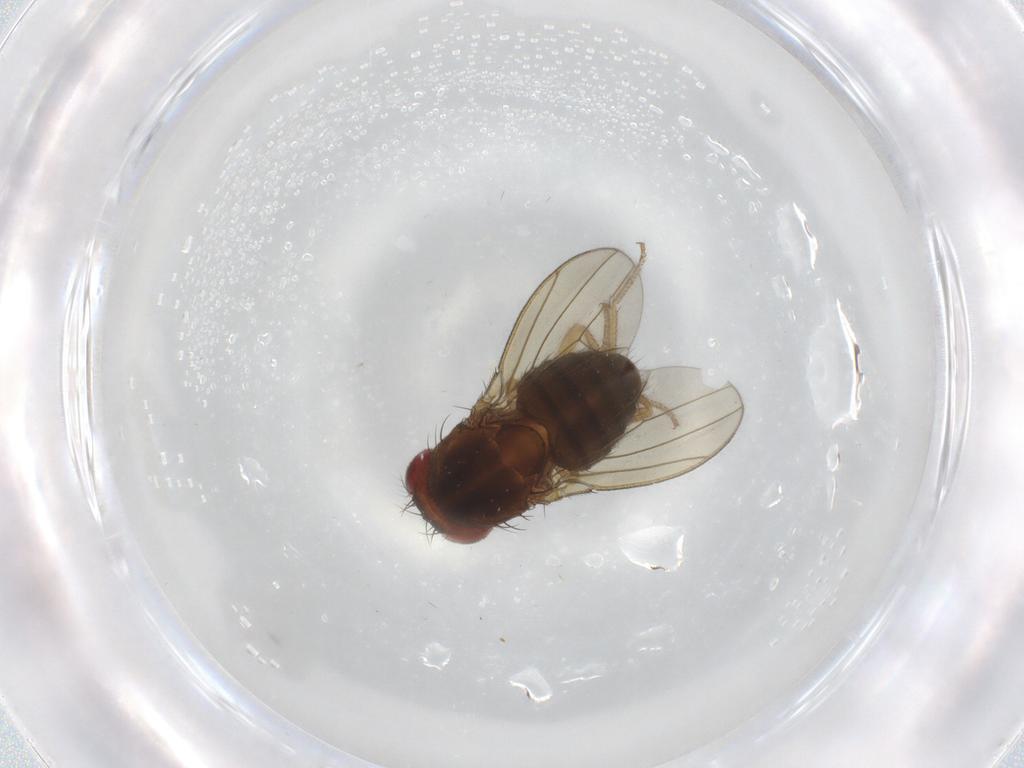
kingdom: Animalia
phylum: Arthropoda
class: Insecta
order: Diptera
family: Drosophilidae
